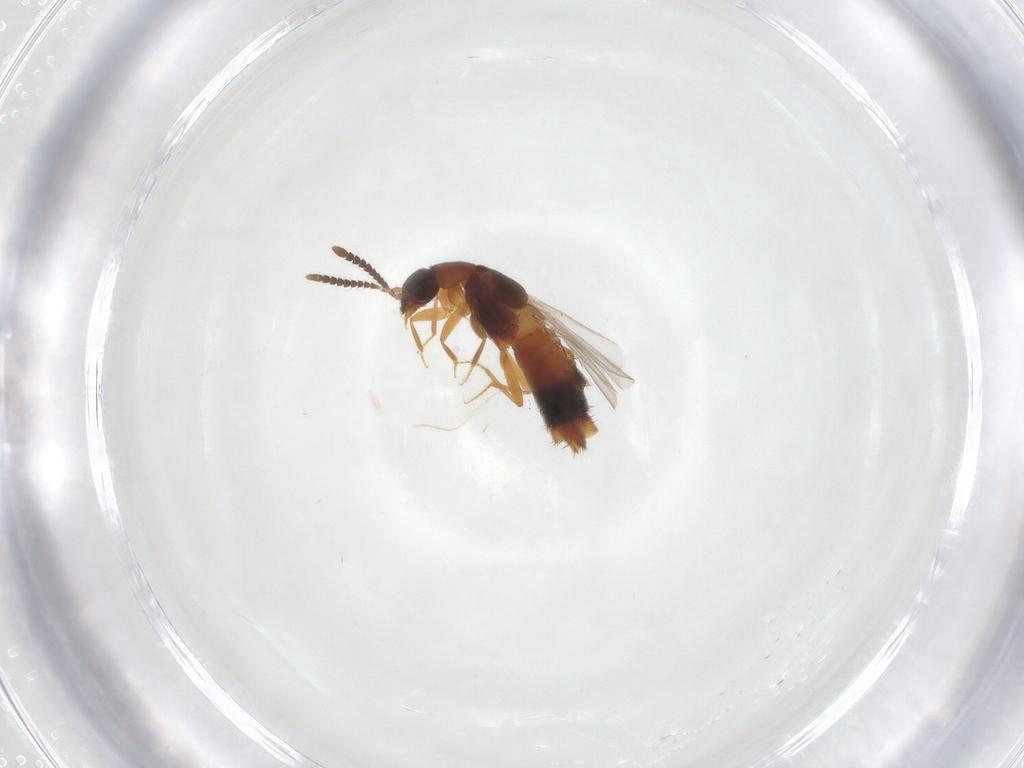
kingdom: Animalia
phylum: Arthropoda
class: Insecta
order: Coleoptera
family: Staphylinidae
